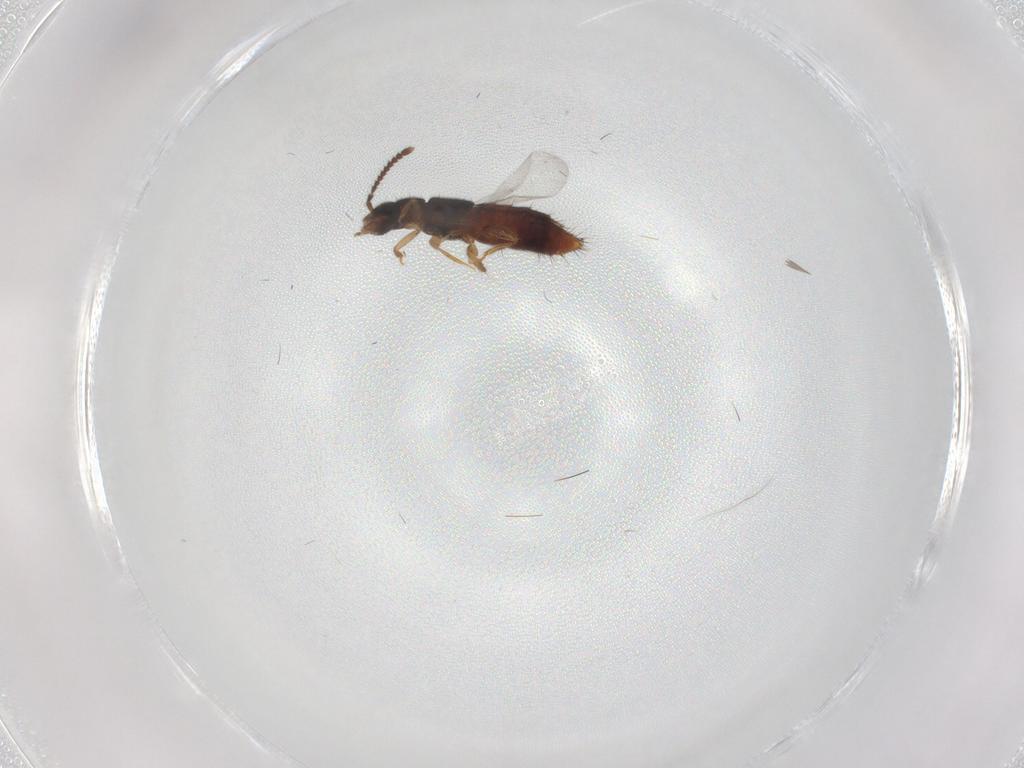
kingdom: Animalia
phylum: Arthropoda
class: Insecta
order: Coleoptera
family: Staphylinidae
